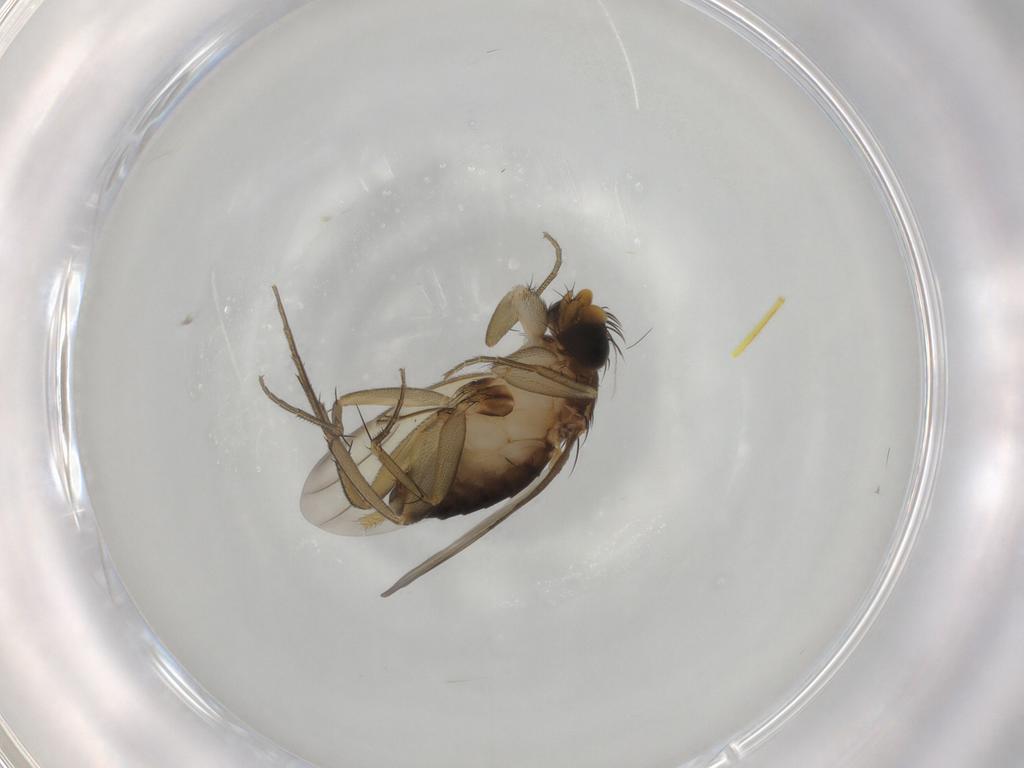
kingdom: Animalia
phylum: Arthropoda
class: Insecta
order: Diptera
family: Phoridae
